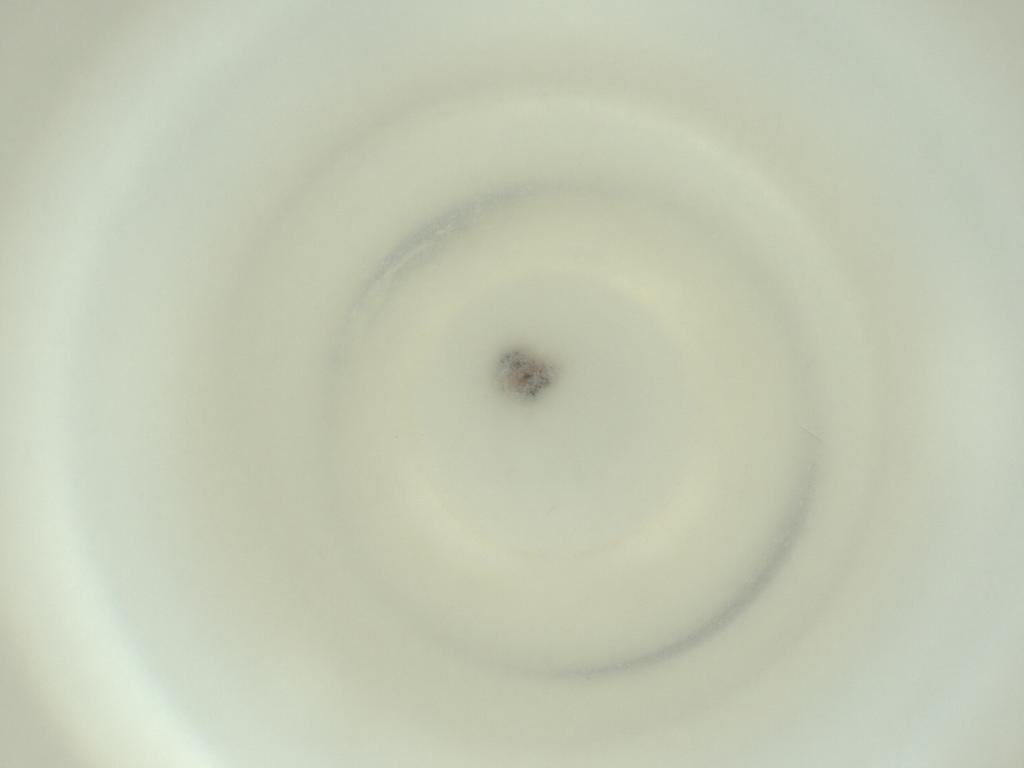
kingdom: Animalia
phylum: Arthropoda
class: Insecta
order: Diptera
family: Cecidomyiidae
